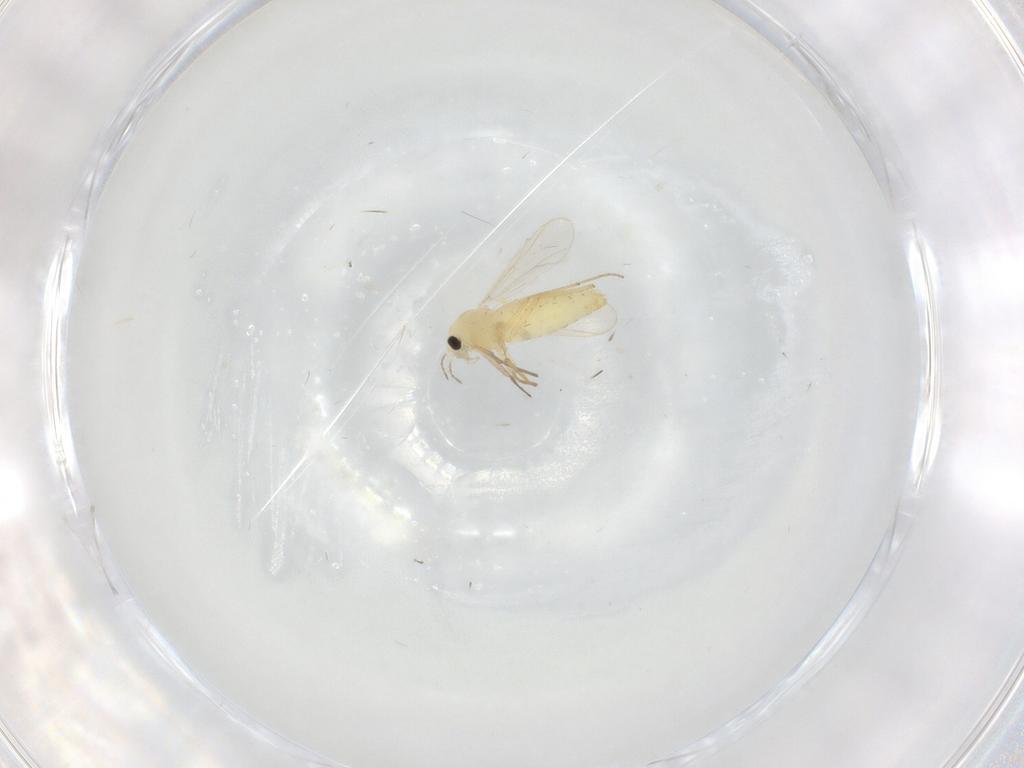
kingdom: Animalia
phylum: Arthropoda
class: Insecta
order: Diptera
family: Chironomidae
